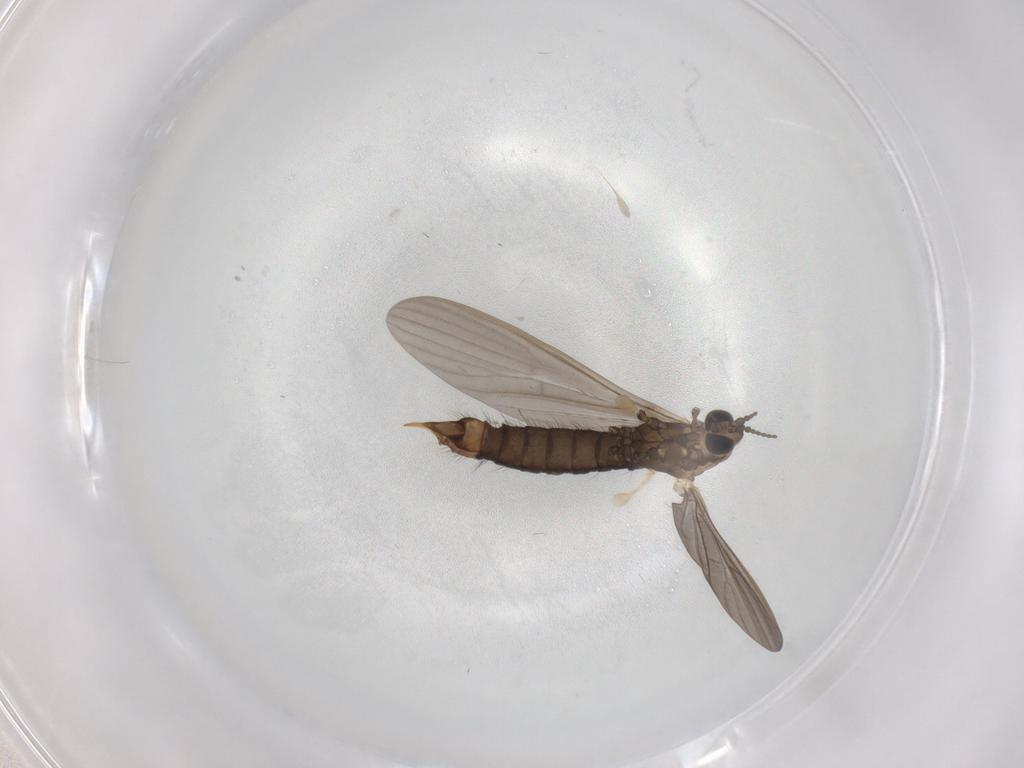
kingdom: Animalia
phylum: Arthropoda
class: Insecta
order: Diptera
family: Limoniidae
